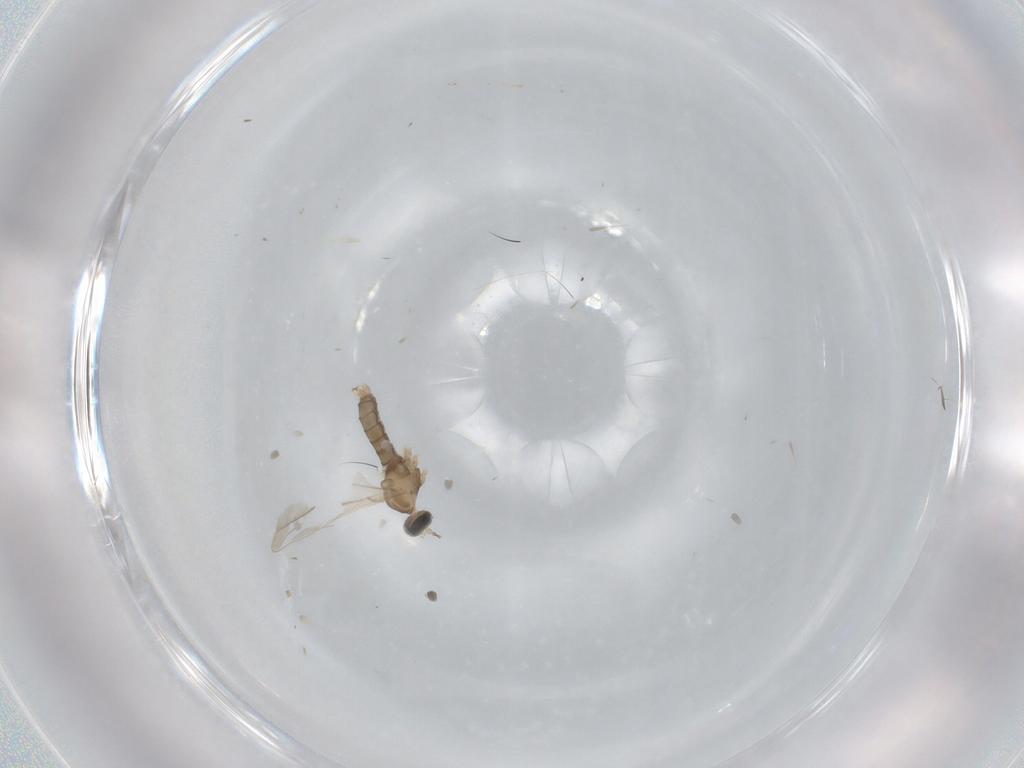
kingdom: Animalia
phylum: Arthropoda
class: Insecta
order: Diptera
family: Cecidomyiidae
